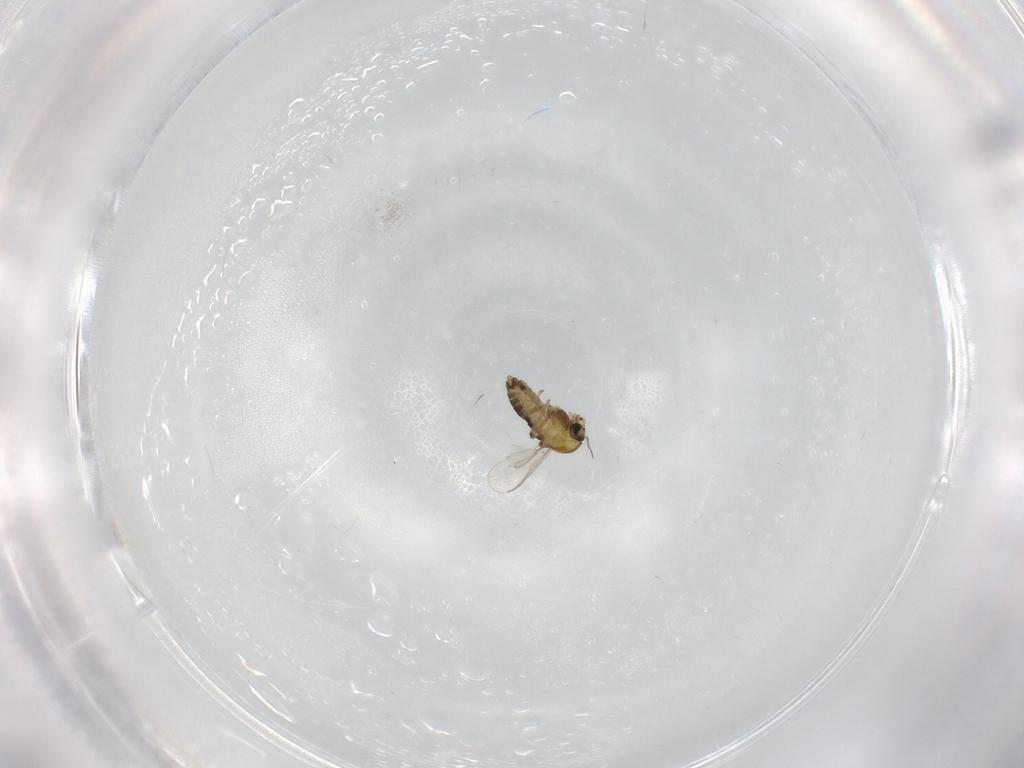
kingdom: Animalia
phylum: Arthropoda
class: Insecta
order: Diptera
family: Chironomidae
